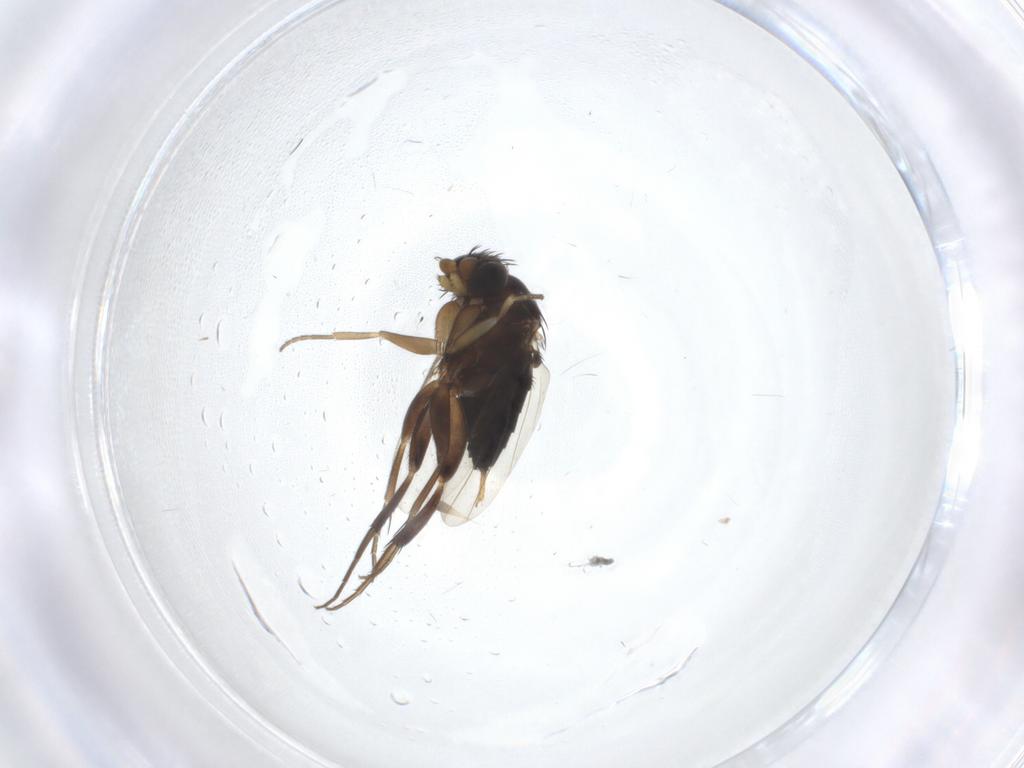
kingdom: Animalia
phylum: Arthropoda
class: Insecta
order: Diptera
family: Phoridae
